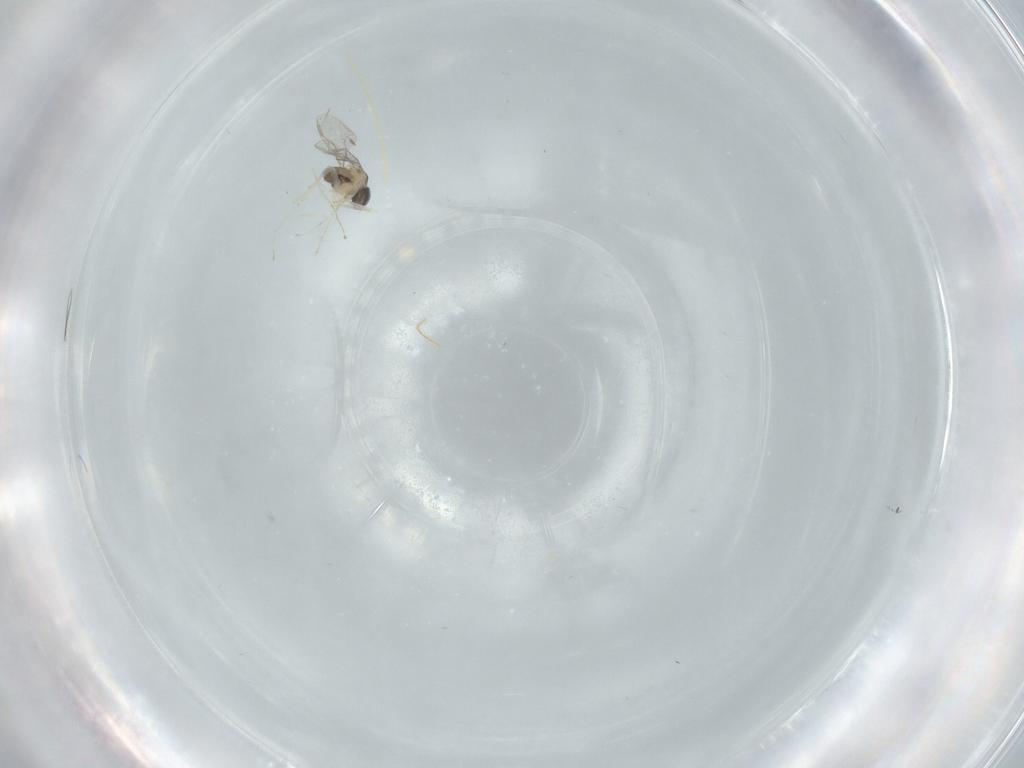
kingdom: Animalia
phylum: Arthropoda
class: Insecta
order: Diptera
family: Cecidomyiidae
